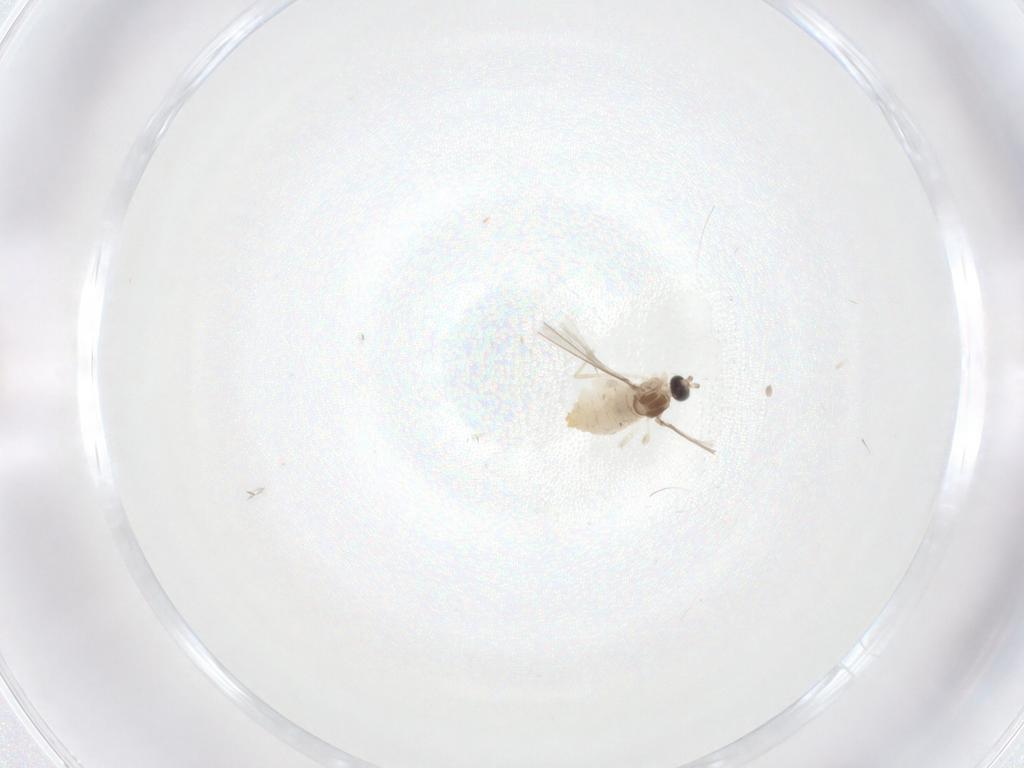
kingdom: Animalia
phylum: Arthropoda
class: Insecta
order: Diptera
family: Cecidomyiidae
